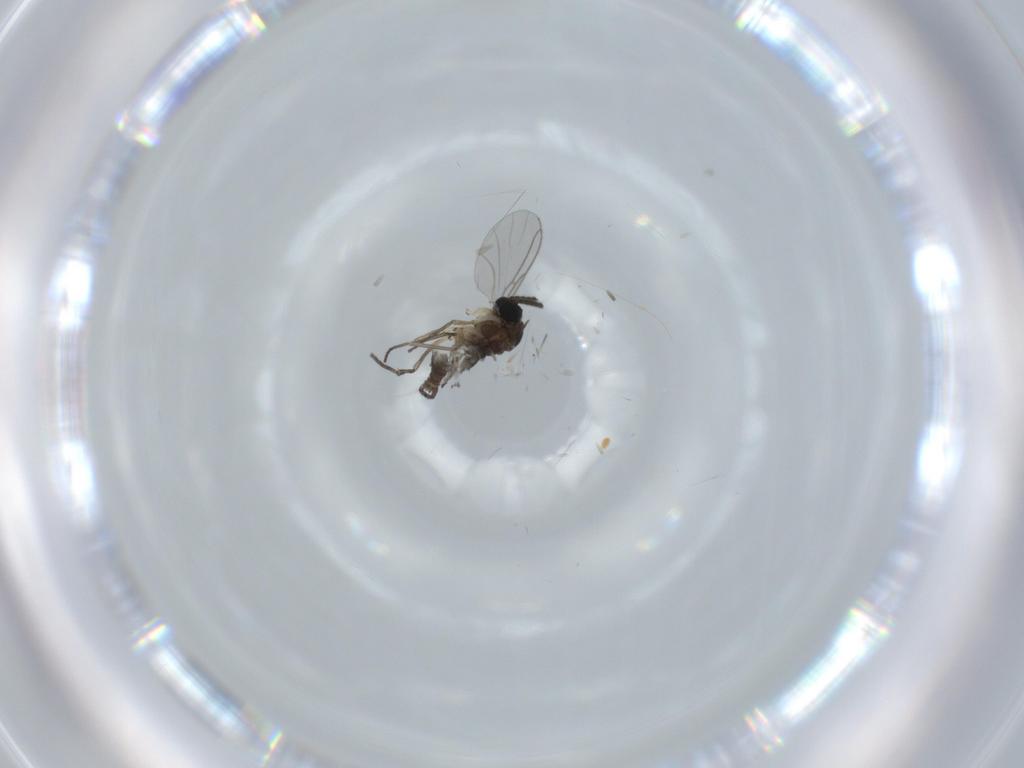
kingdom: Animalia
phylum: Arthropoda
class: Insecta
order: Diptera
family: Sciaridae
